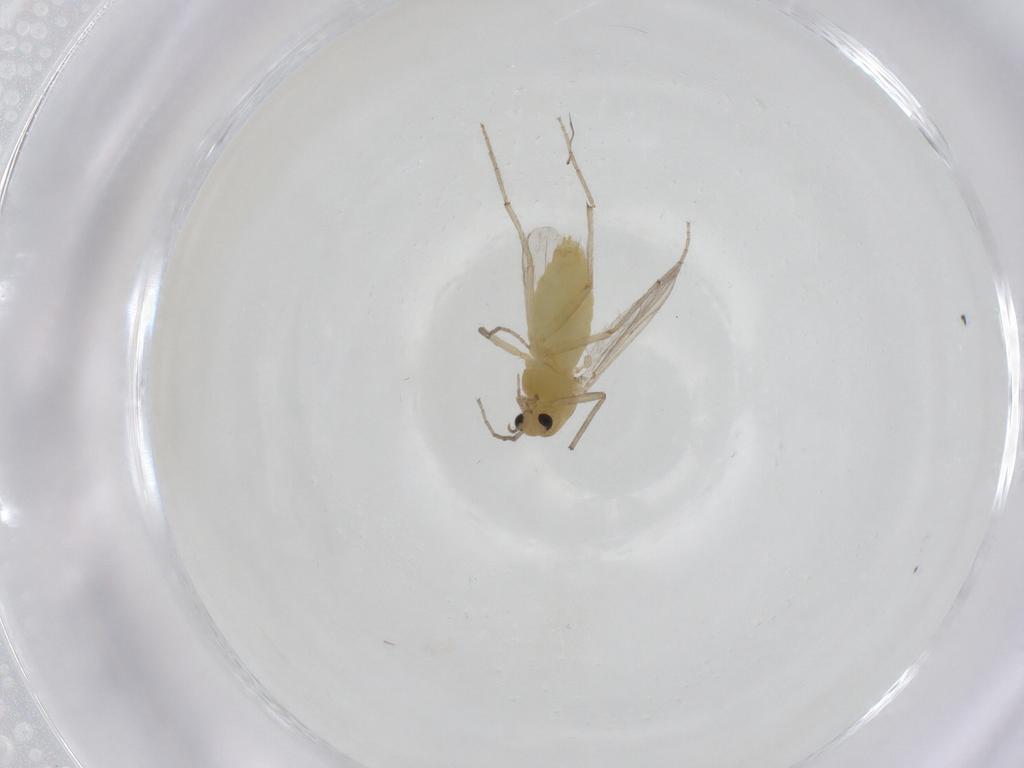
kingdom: Animalia
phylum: Arthropoda
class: Insecta
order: Diptera
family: Chironomidae
